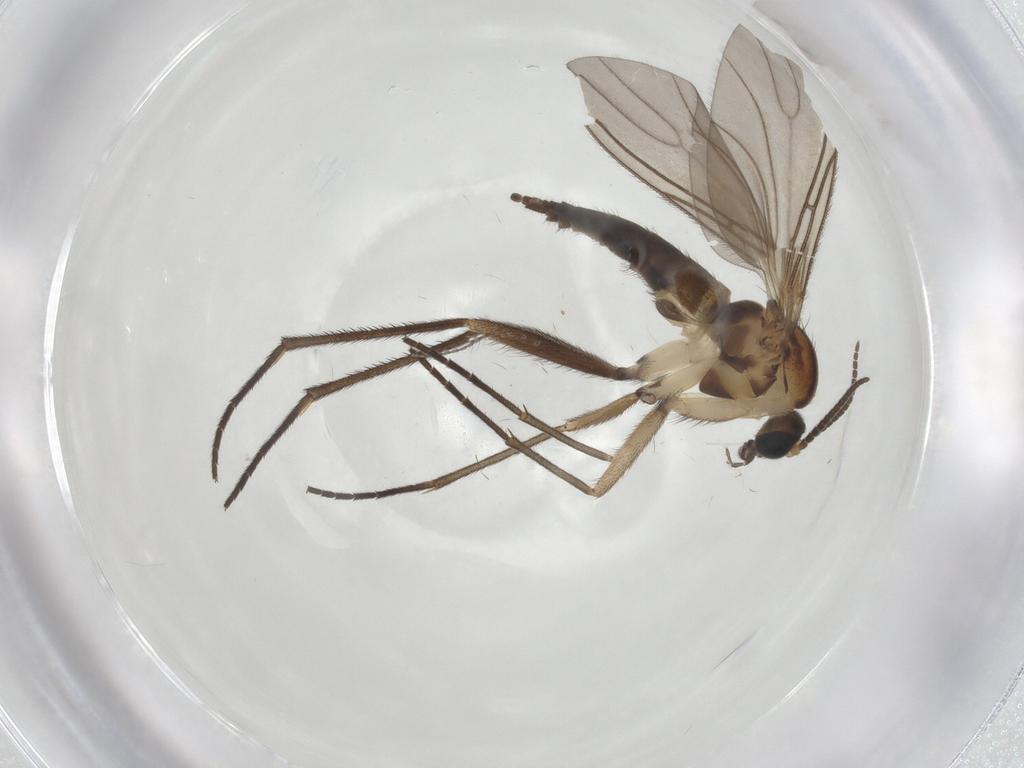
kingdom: Animalia
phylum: Arthropoda
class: Insecta
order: Diptera
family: Sciaridae
